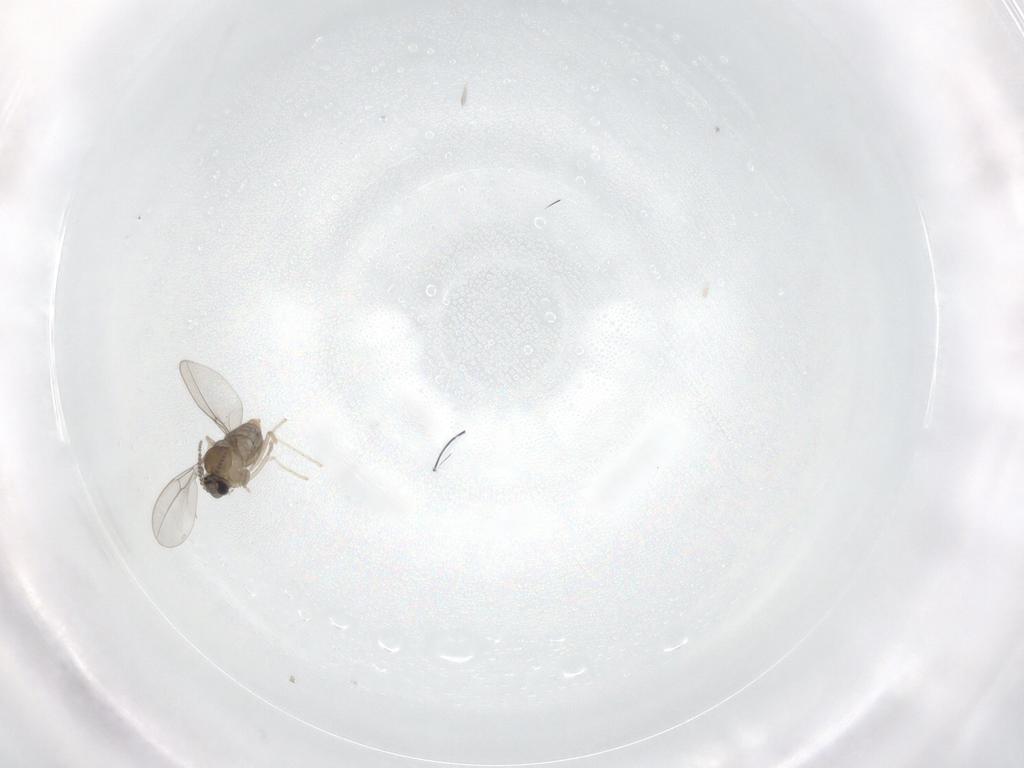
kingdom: Animalia
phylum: Arthropoda
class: Insecta
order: Diptera
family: Cecidomyiidae
